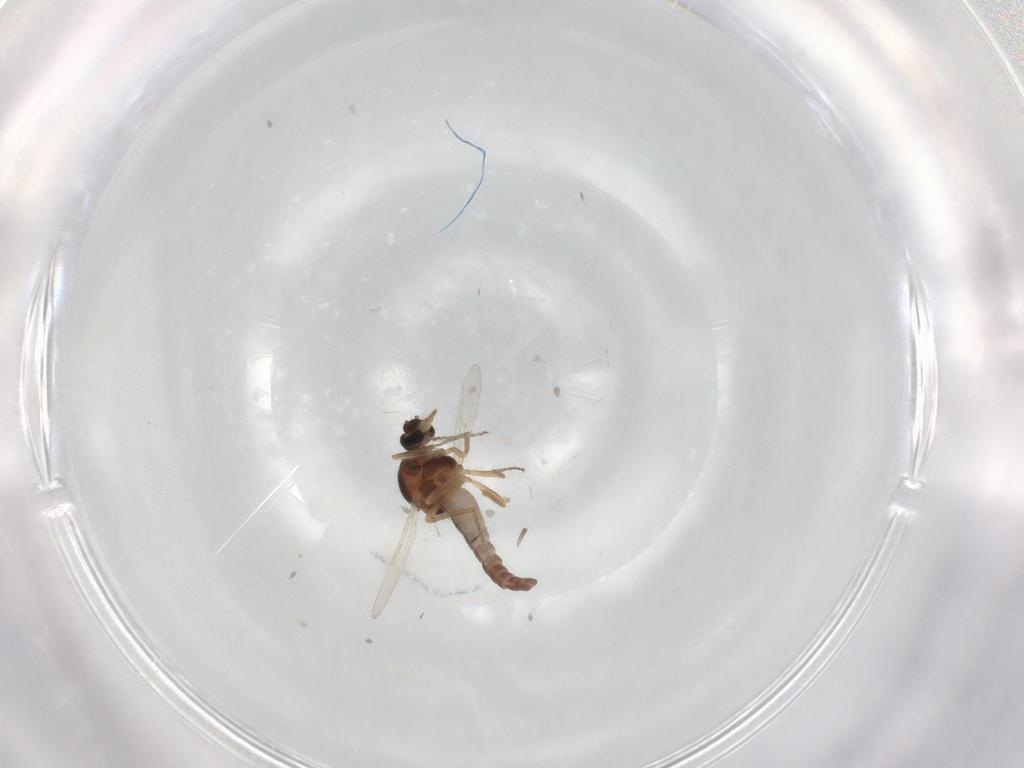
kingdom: Animalia
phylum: Arthropoda
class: Insecta
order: Diptera
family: Ceratopogonidae
